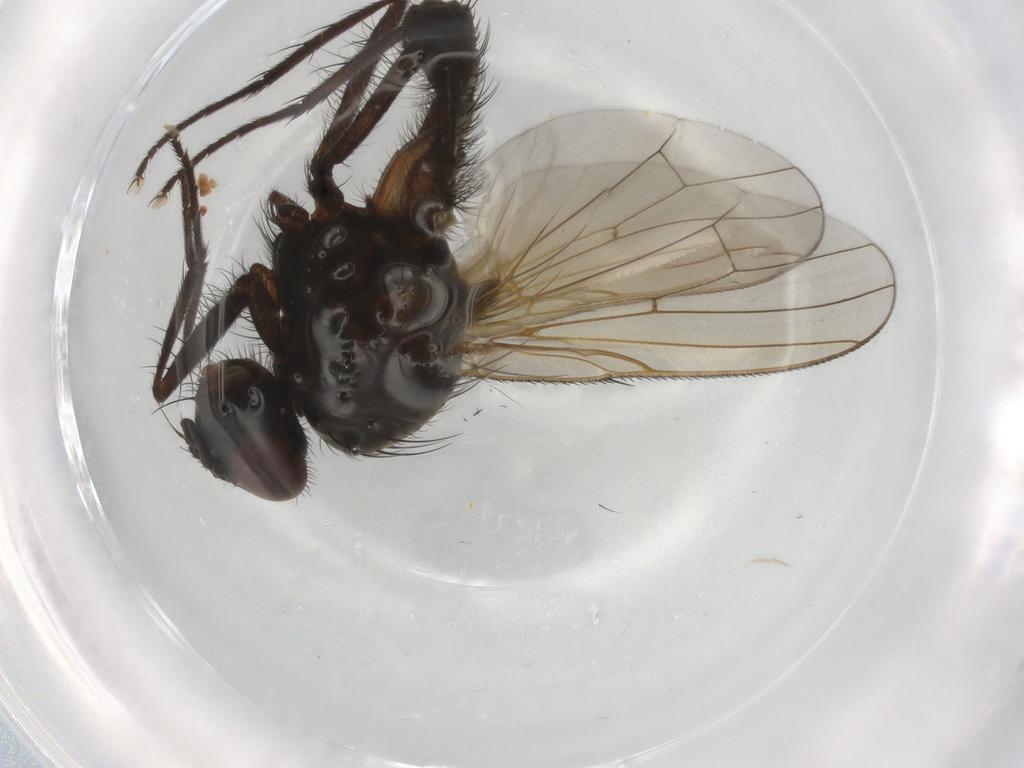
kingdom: Animalia
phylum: Arthropoda
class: Insecta
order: Diptera
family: Anthomyiidae
